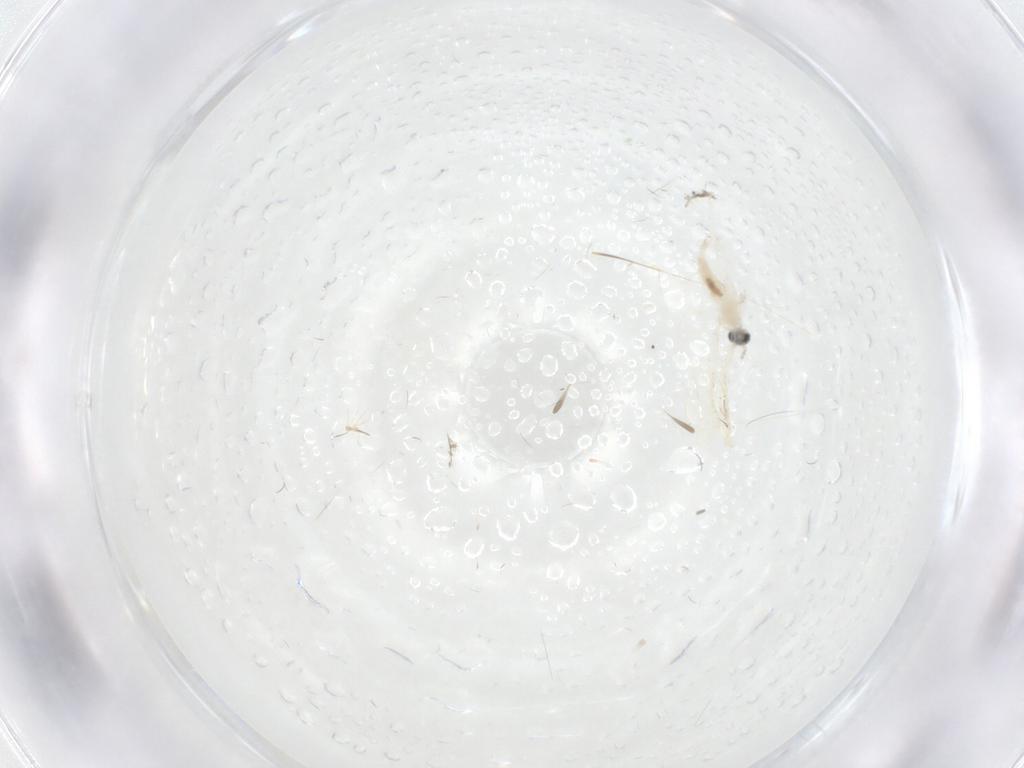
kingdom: Animalia
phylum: Arthropoda
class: Insecta
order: Diptera
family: Cecidomyiidae
